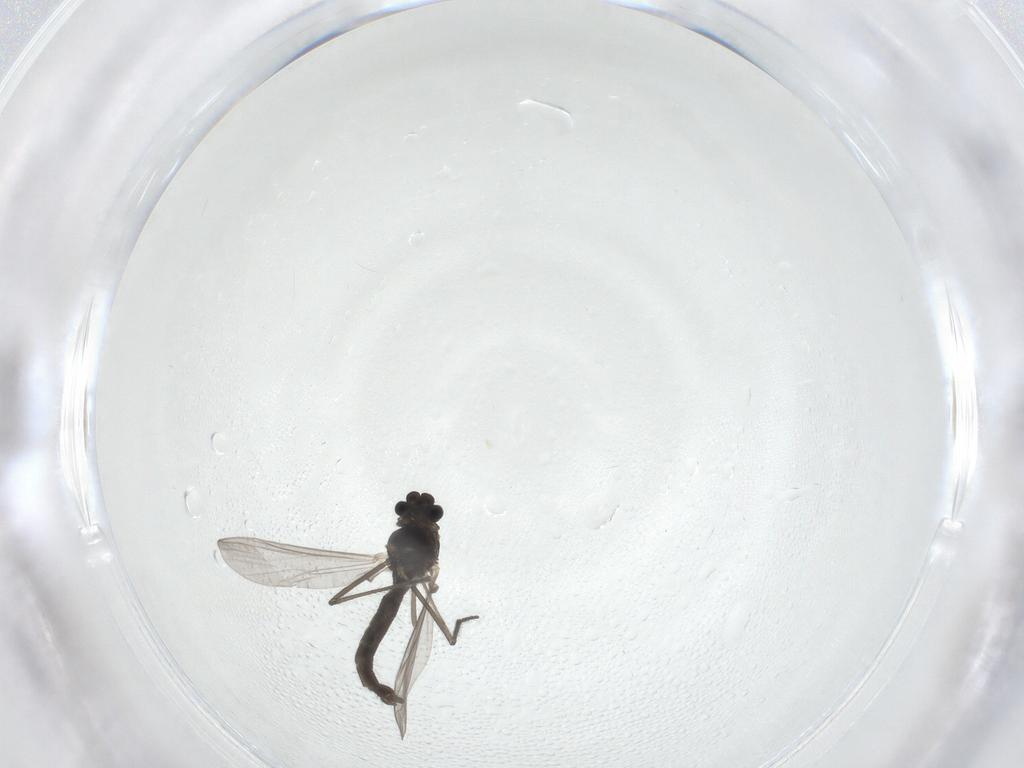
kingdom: Animalia
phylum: Arthropoda
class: Insecta
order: Diptera
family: Chironomidae
